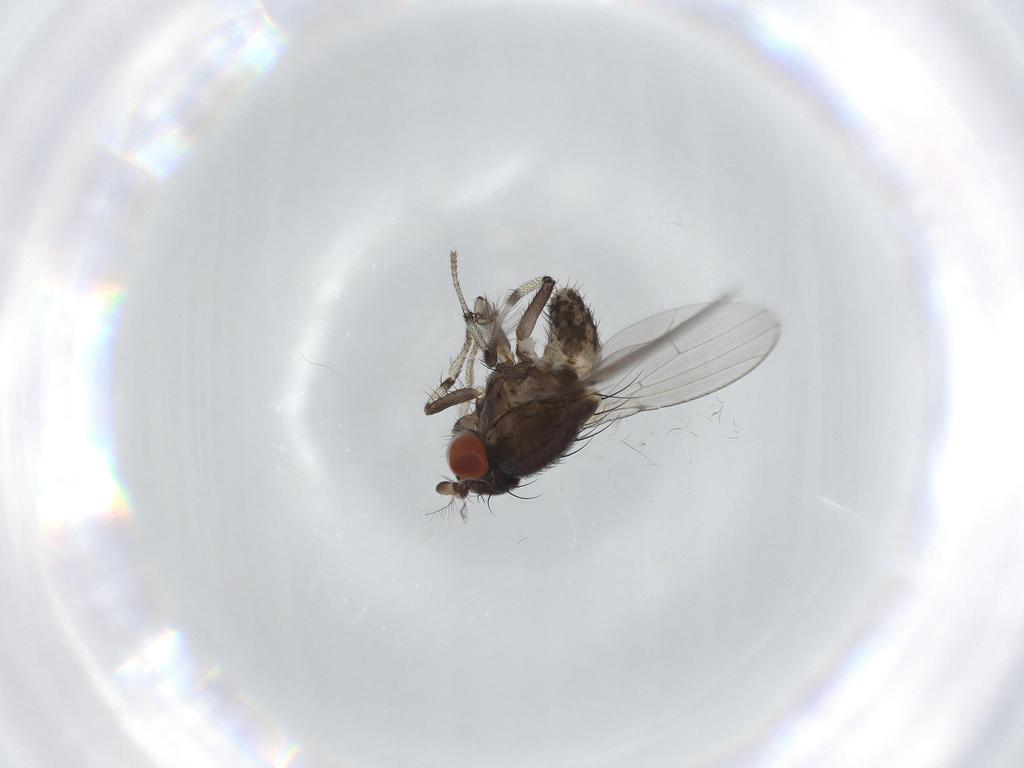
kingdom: Animalia
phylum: Arthropoda
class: Insecta
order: Diptera
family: Chironomidae
